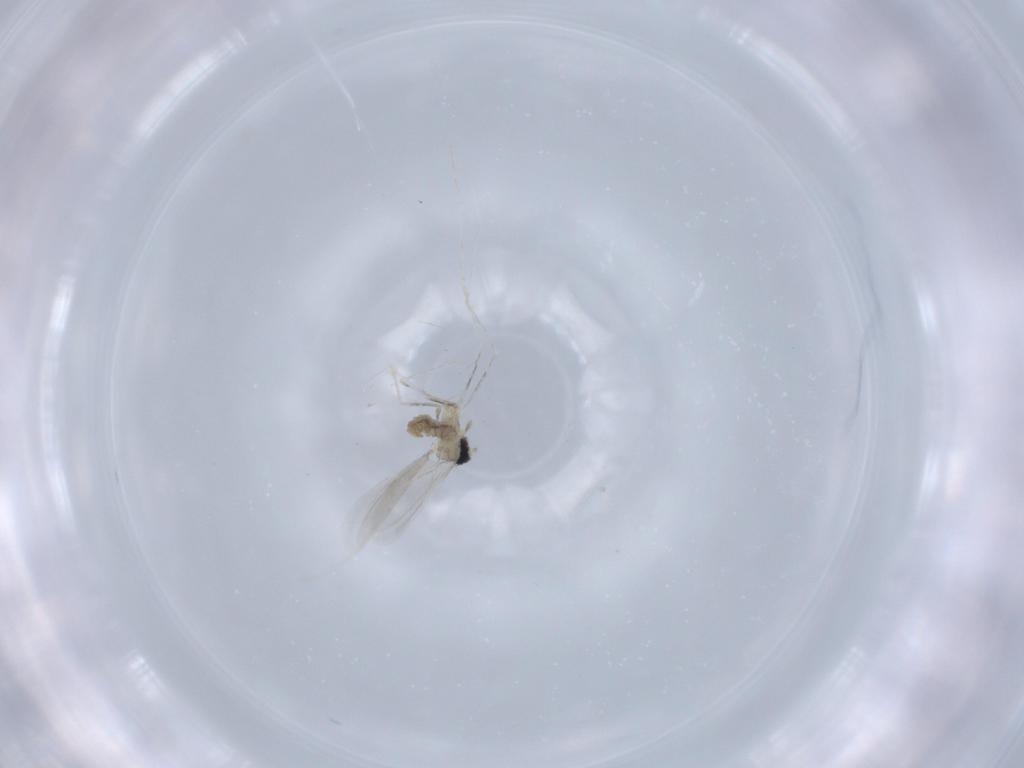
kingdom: Animalia
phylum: Arthropoda
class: Insecta
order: Diptera
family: Cecidomyiidae
